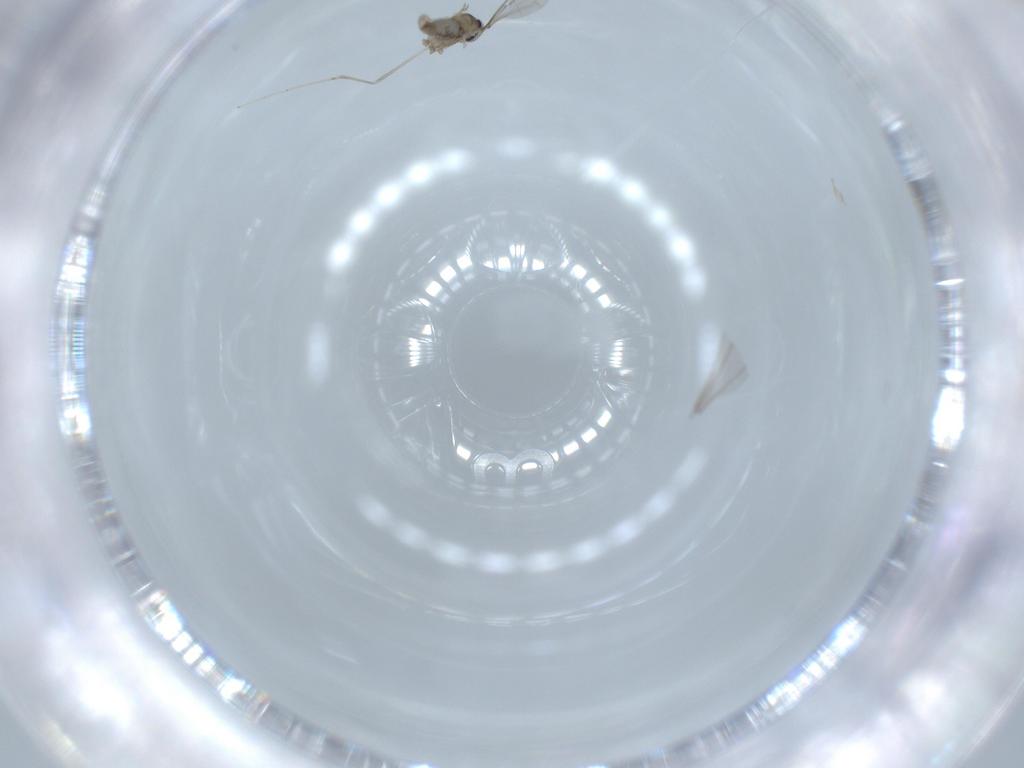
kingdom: Animalia
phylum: Arthropoda
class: Insecta
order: Diptera
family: Cecidomyiidae
